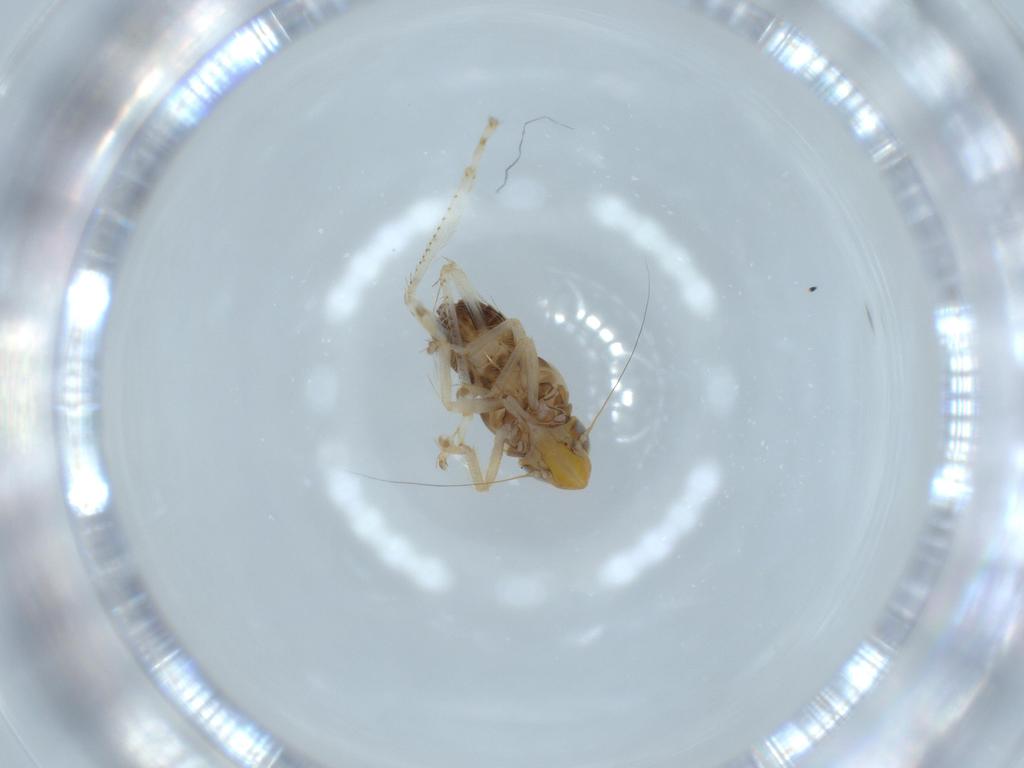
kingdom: Animalia
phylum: Arthropoda
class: Insecta
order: Hemiptera
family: Cicadellidae
